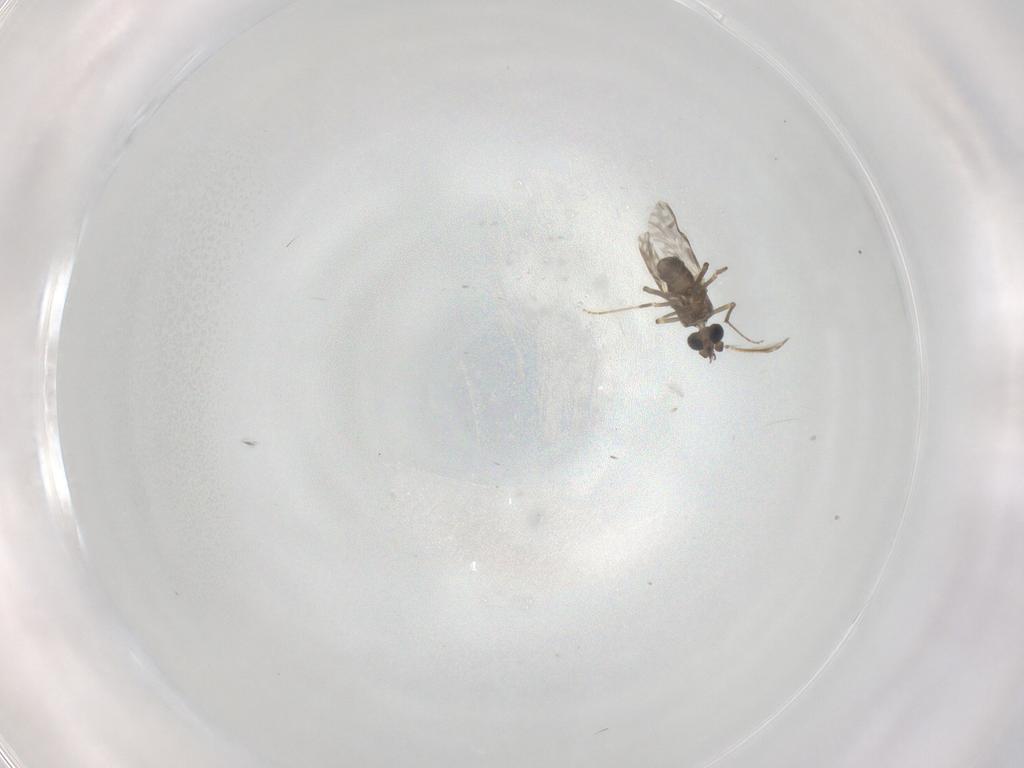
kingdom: Animalia
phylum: Arthropoda
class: Insecta
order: Diptera
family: Ceratopogonidae
